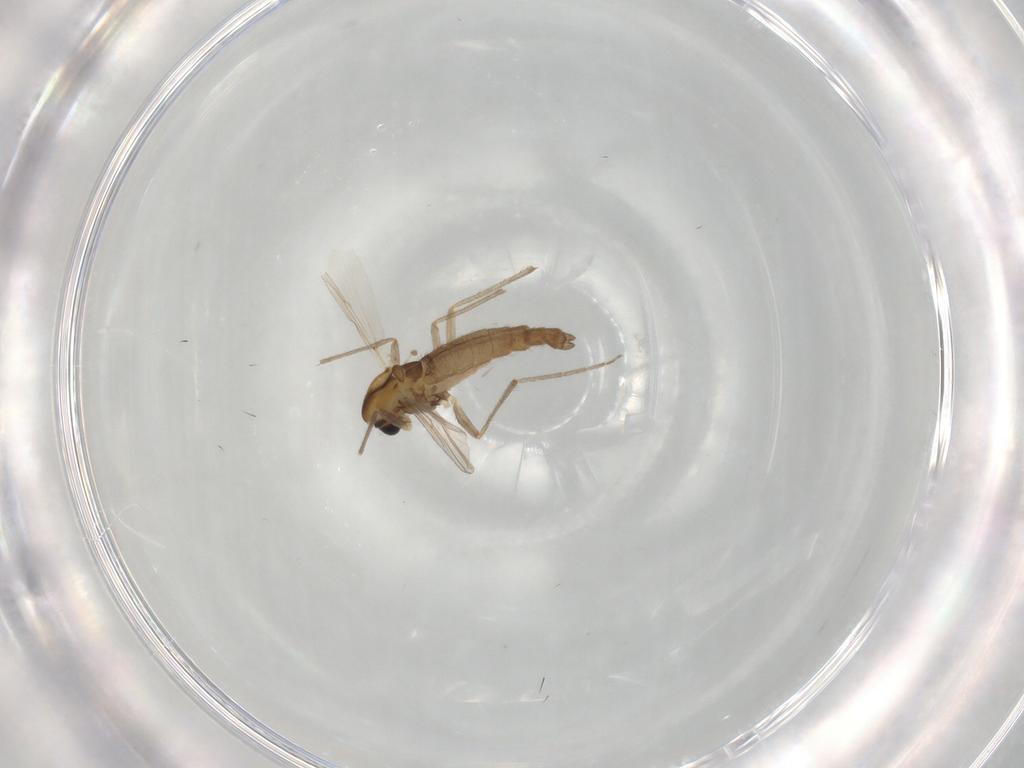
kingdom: Animalia
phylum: Arthropoda
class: Insecta
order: Diptera
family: Chironomidae
